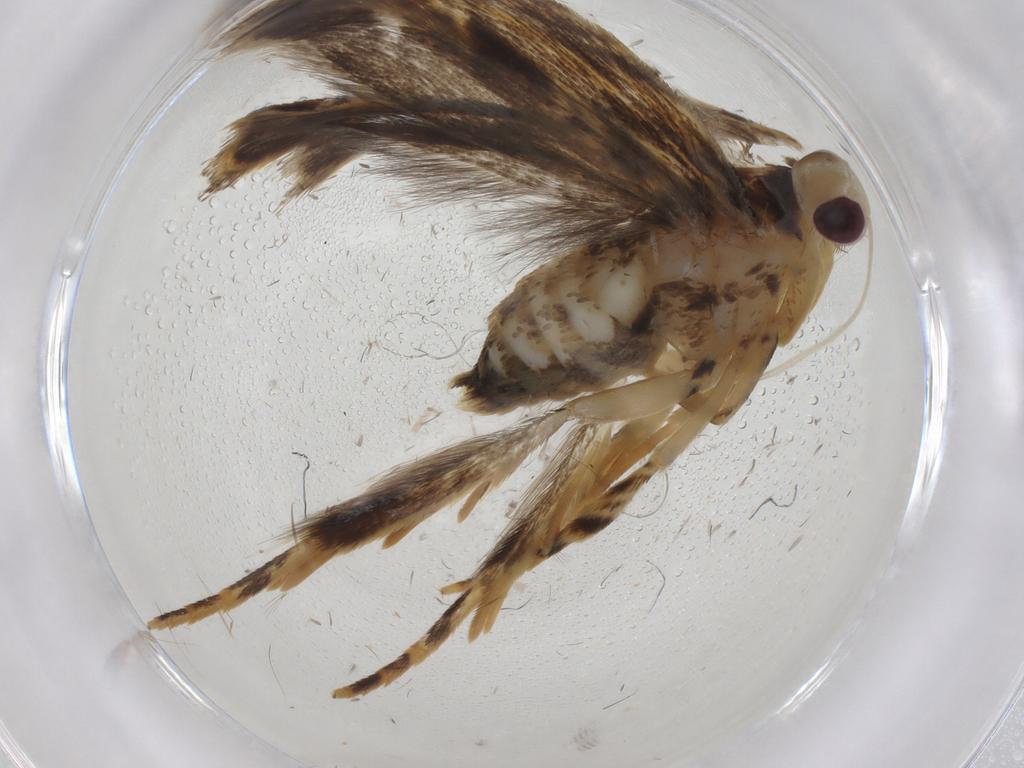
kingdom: Animalia
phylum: Arthropoda
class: Insecta
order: Lepidoptera
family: Gelechiidae
